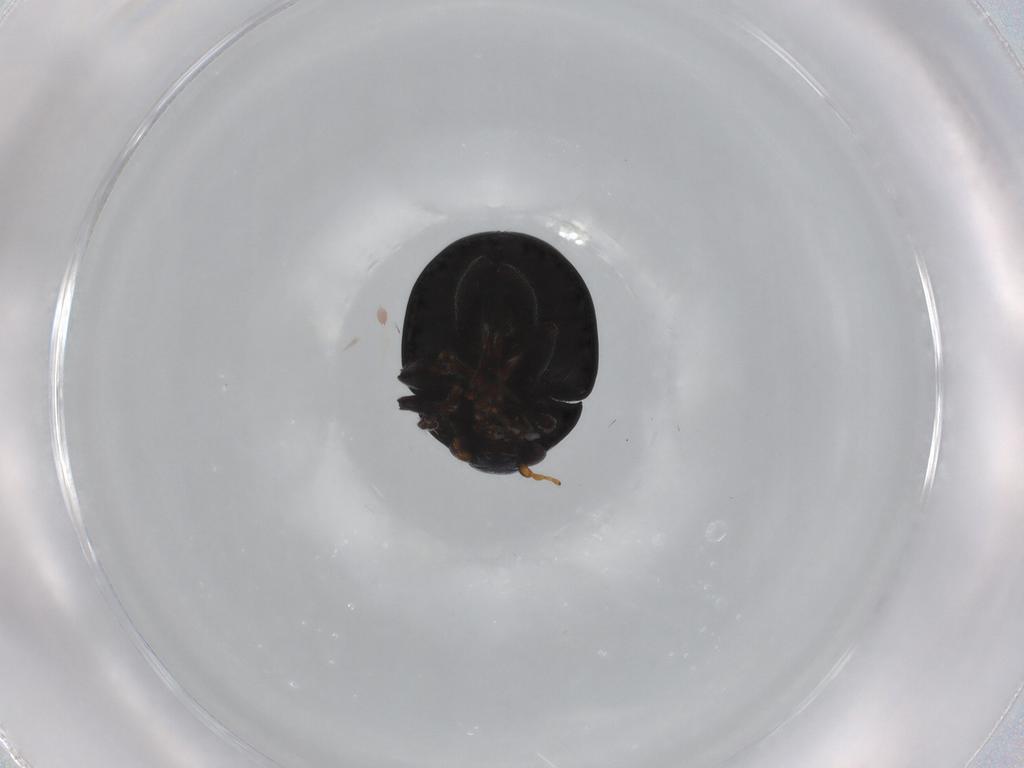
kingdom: Animalia
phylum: Arthropoda
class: Insecta
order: Coleoptera
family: Chrysomelidae
